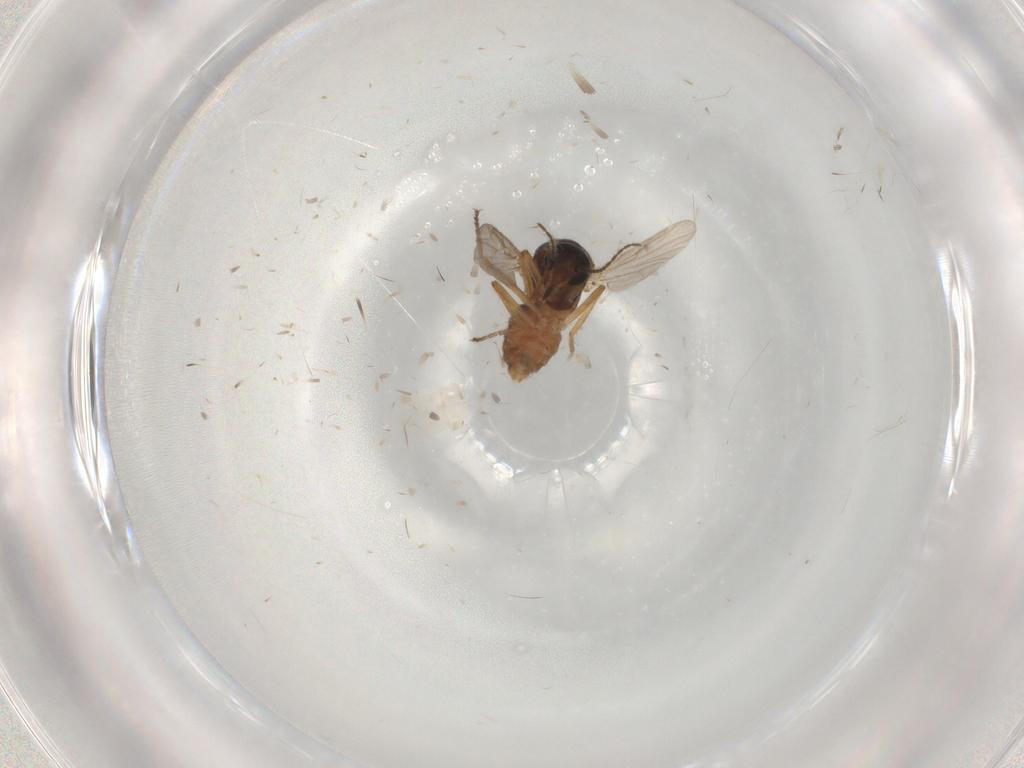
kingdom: Animalia
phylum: Arthropoda
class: Insecta
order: Diptera
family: Ceratopogonidae
